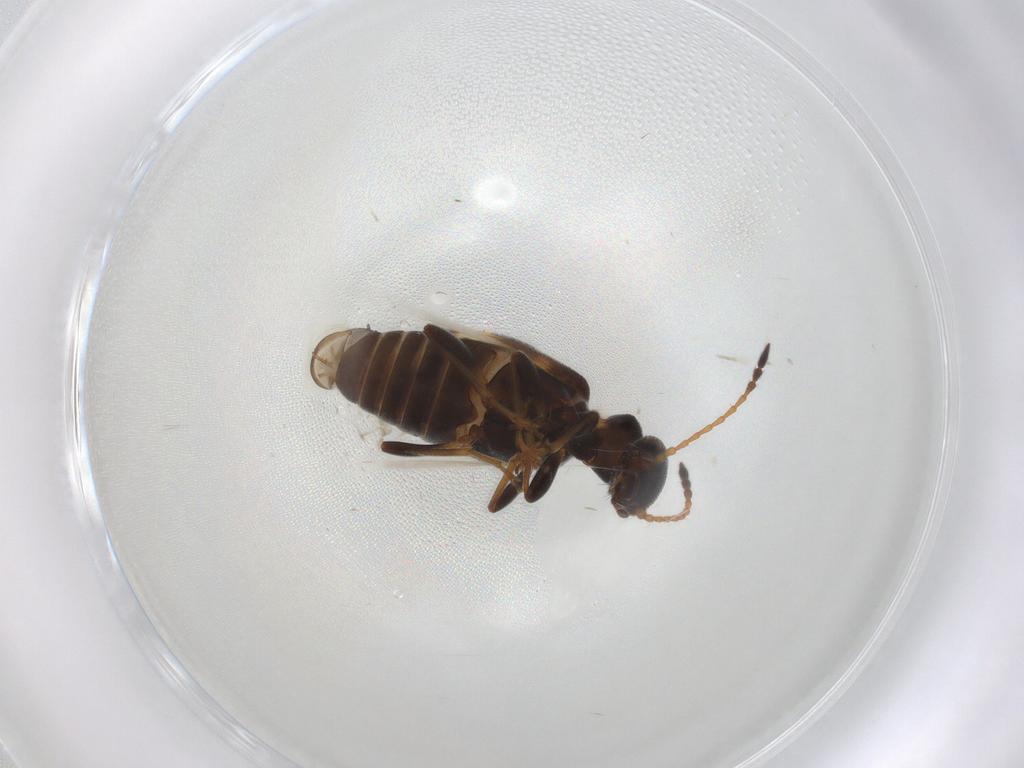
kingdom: Animalia
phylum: Arthropoda
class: Insecta
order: Coleoptera
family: Anthicidae
